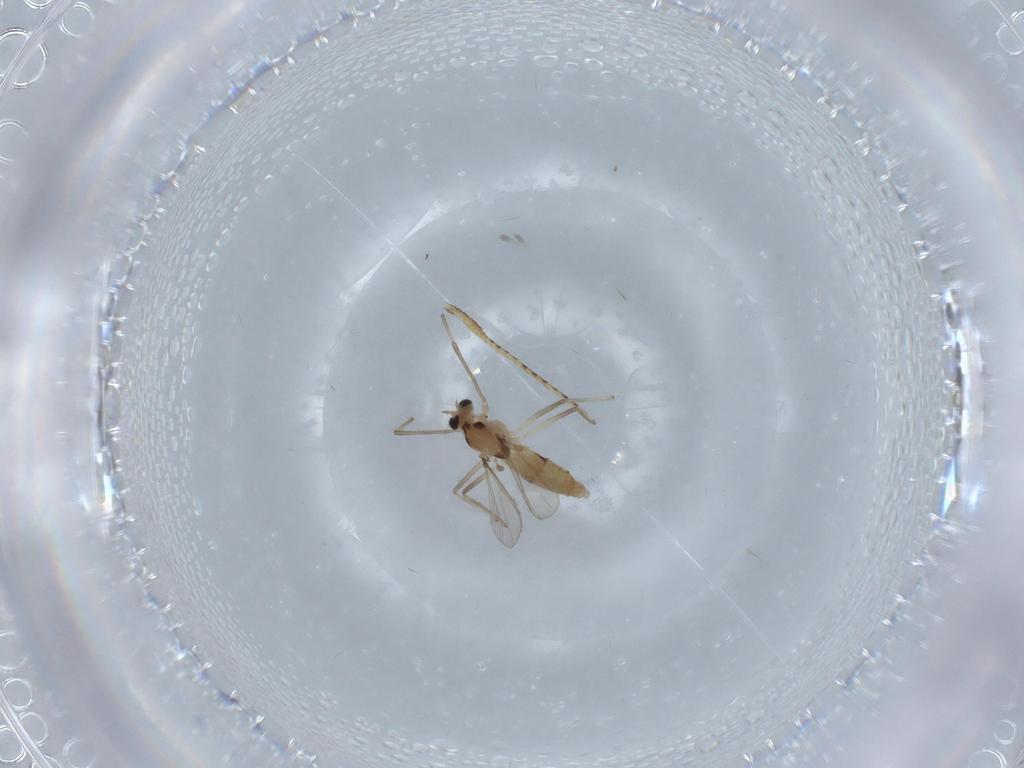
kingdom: Animalia
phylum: Arthropoda
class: Insecta
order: Diptera
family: Chironomidae
